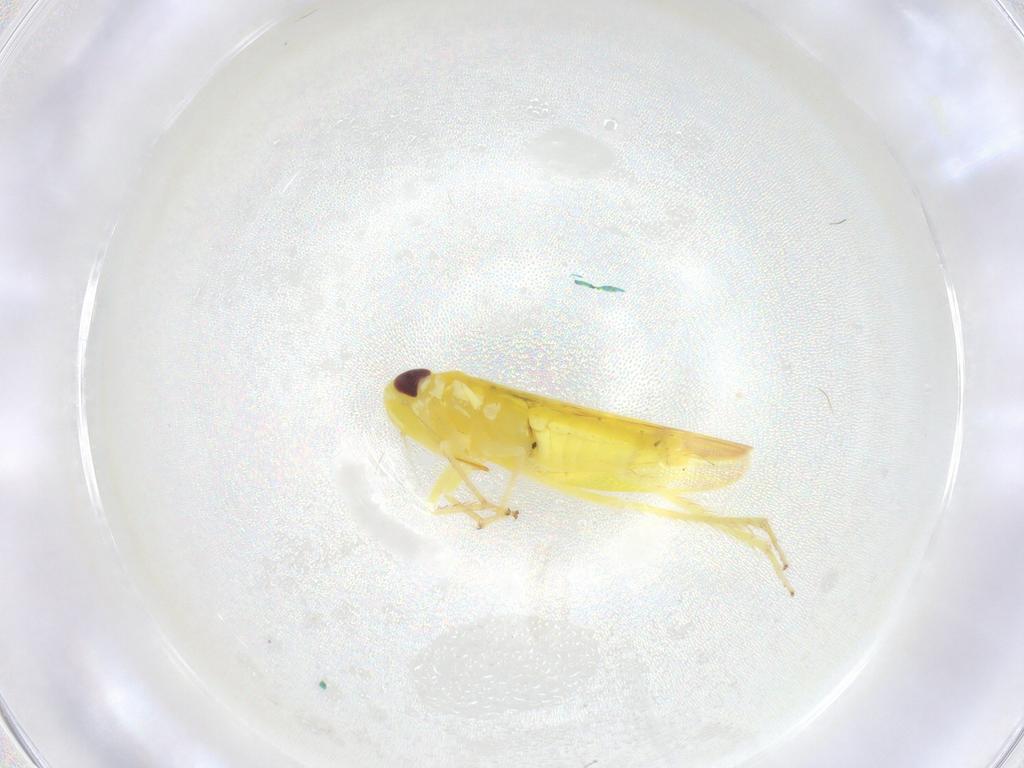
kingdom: Animalia
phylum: Arthropoda
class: Insecta
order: Hemiptera
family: Cicadellidae
